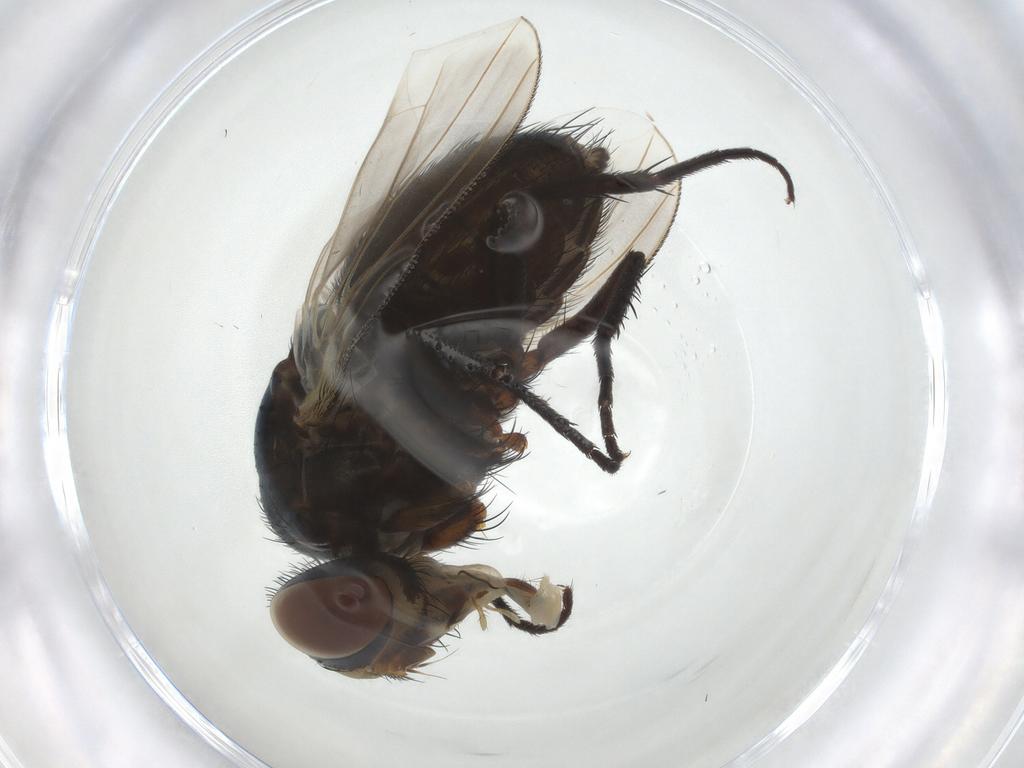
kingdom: Animalia
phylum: Arthropoda
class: Insecta
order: Diptera
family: Tachinidae
